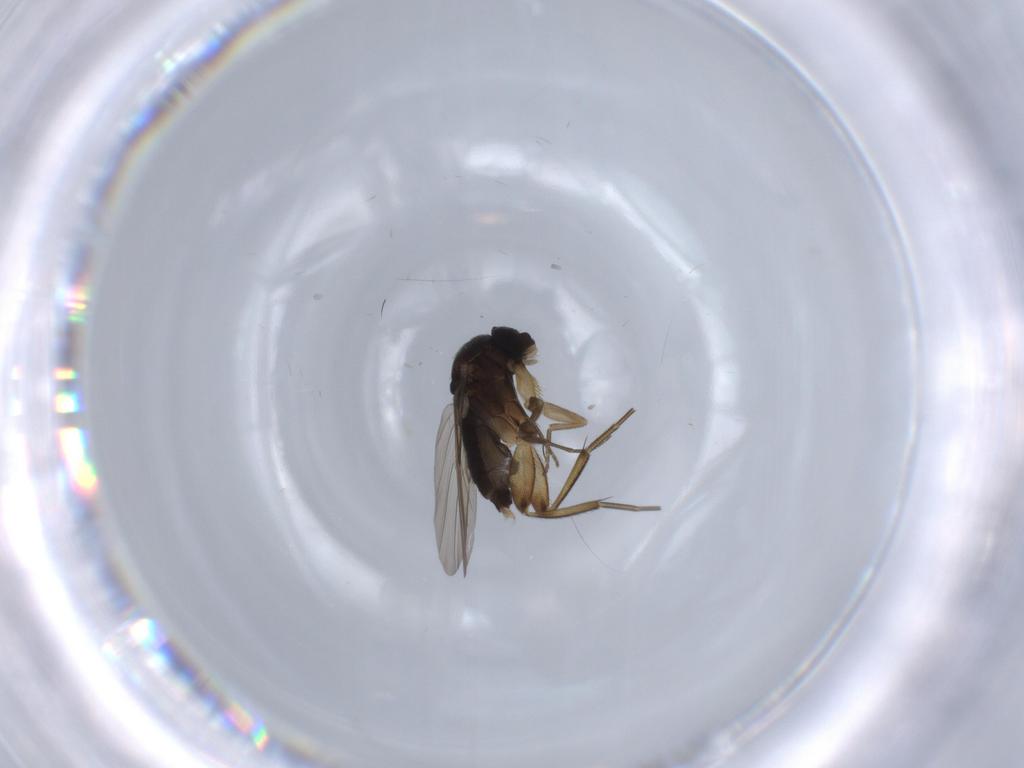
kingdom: Animalia
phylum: Arthropoda
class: Insecta
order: Diptera
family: Phoridae
